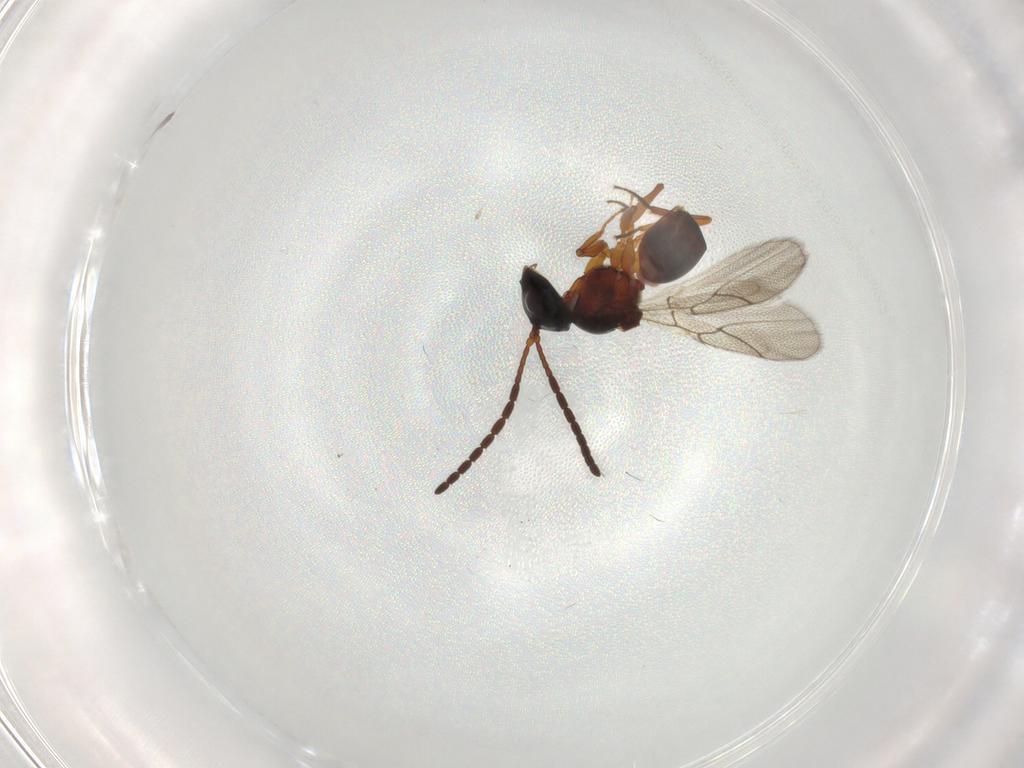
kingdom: Animalia
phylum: Arthropoda
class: Insecta
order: Hymenoptera
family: Figitidae
